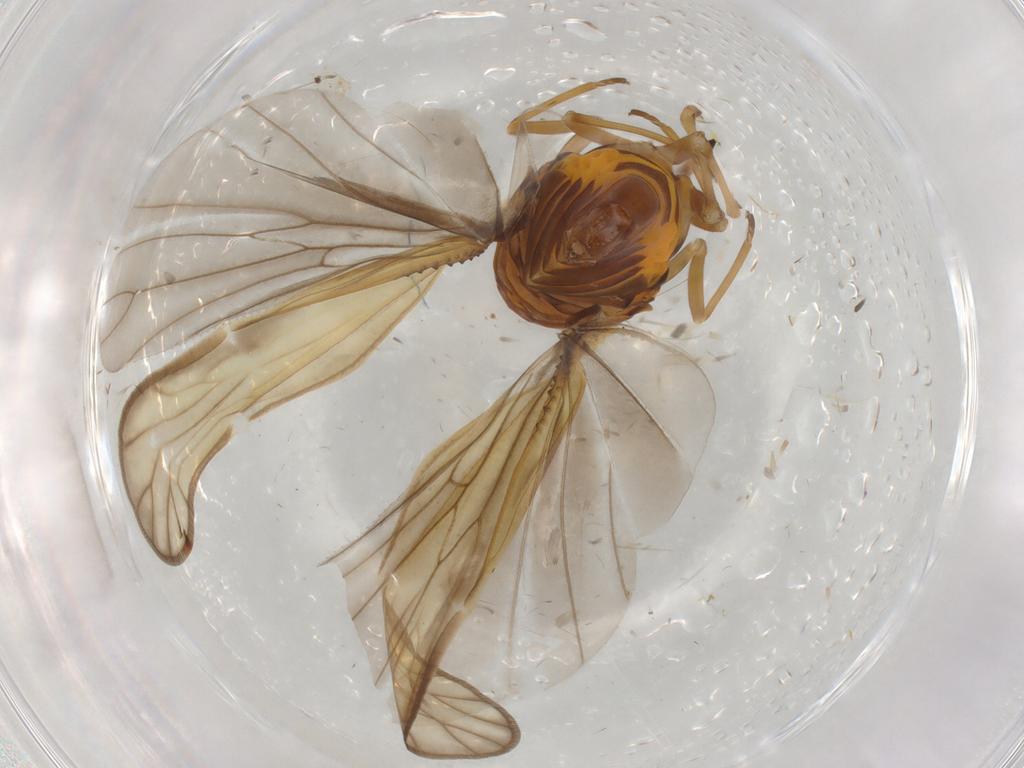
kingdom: Animalia
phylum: Arthropoda
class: Insecta
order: Hemiptera
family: Meenoplidae
